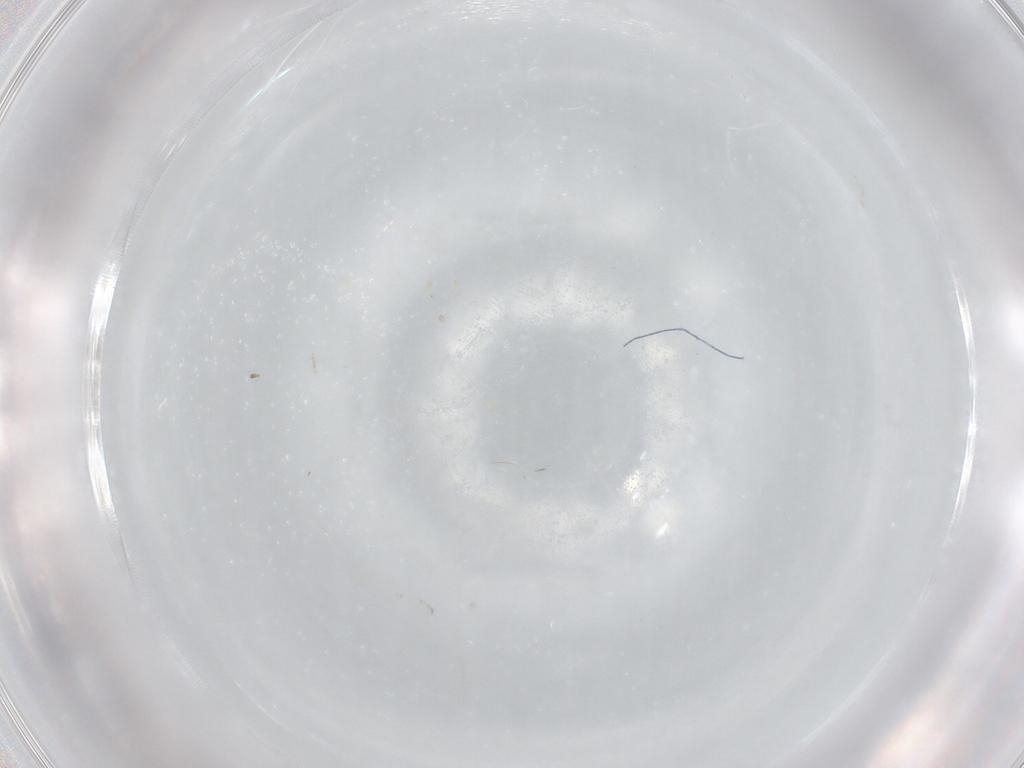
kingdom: Animalia
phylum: Arthropoda
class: Insecta
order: Diptera
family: Cecidomyiidae
